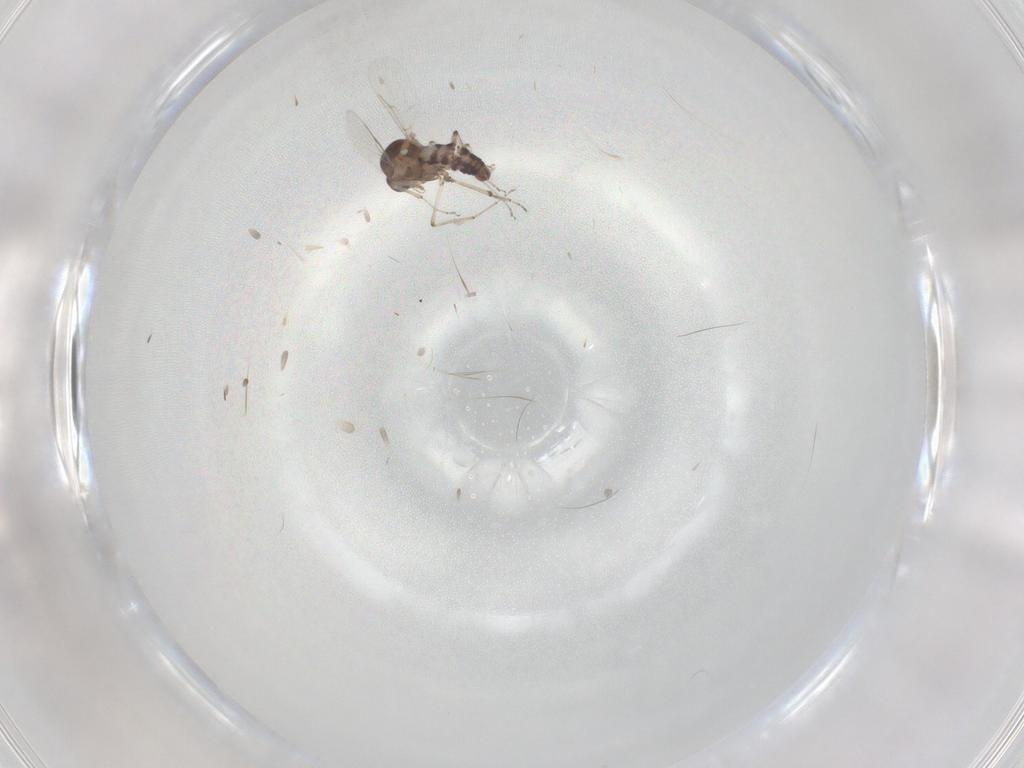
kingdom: Animalia
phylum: Arthropoda
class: Insecta
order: Diptera
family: Ceratopogonidae
